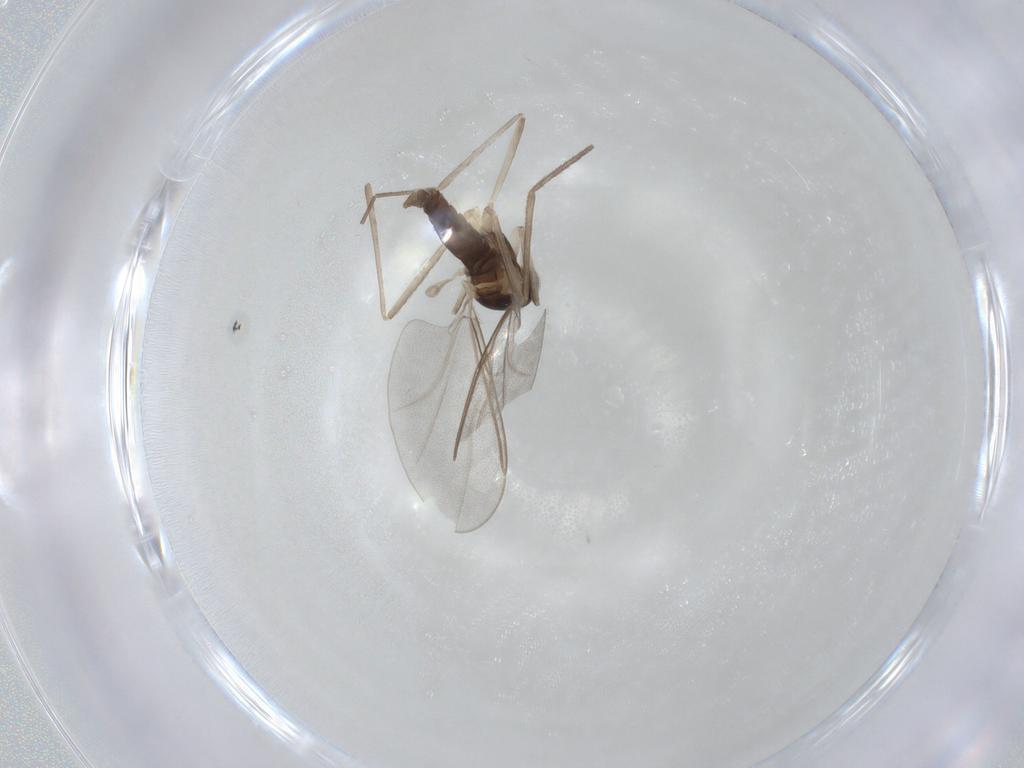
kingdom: Animalia
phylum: Arthropoda
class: Insecta
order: Diptera
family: Cecidomyiidae
